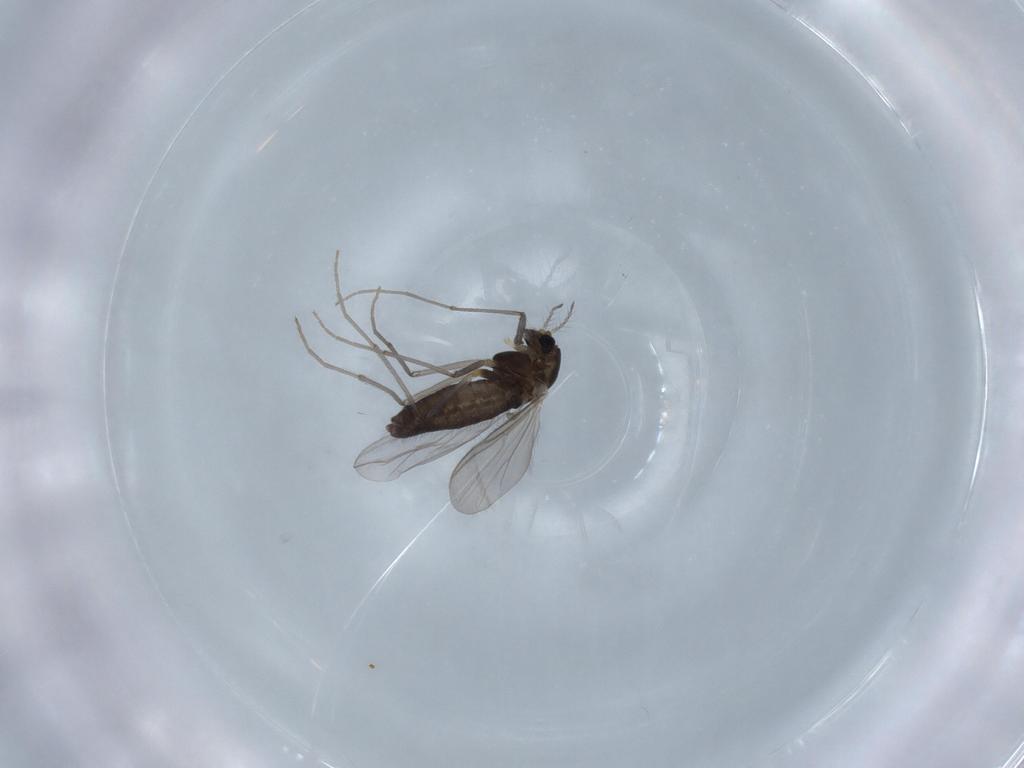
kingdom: Animalia
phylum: Arthropoda
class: Insecta
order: Diptera
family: Chironomidae
